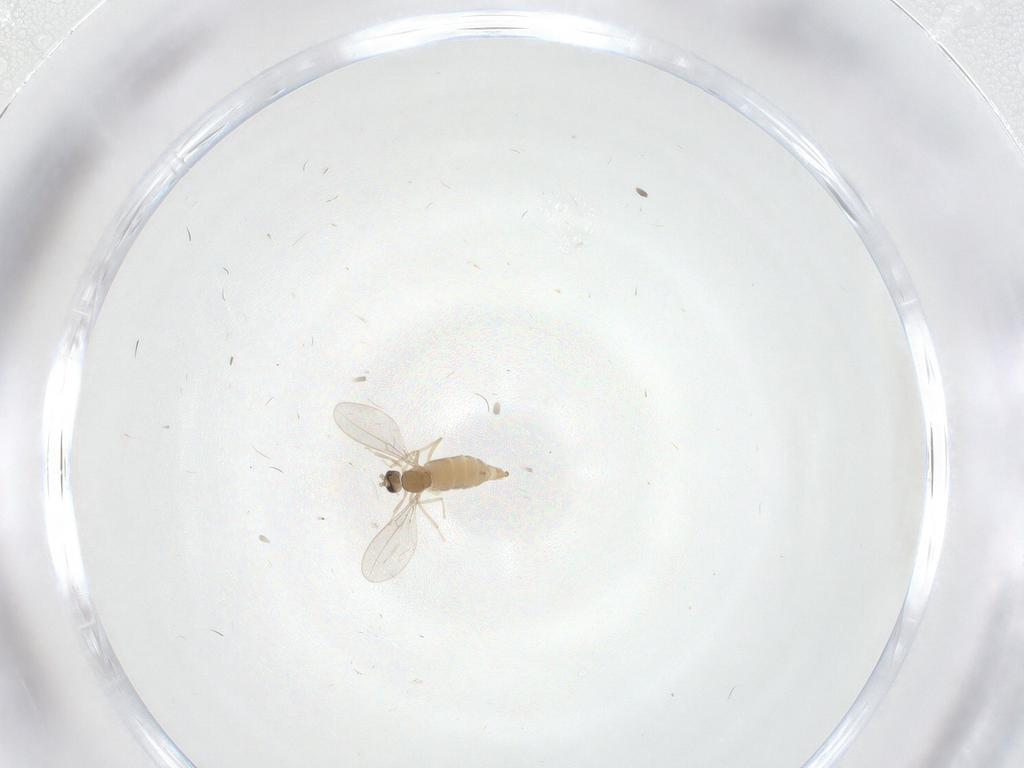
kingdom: Animalia
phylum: Arthropoda
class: Insecta
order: Diptera
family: Cecidomyiidae
